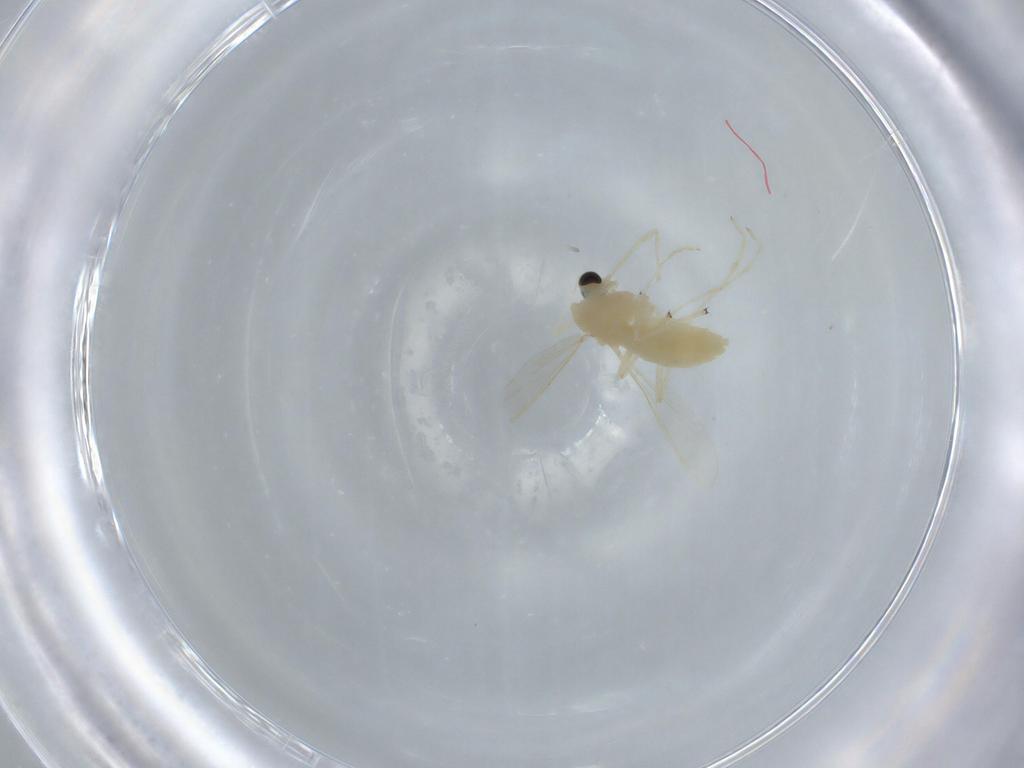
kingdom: Animalia
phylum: Arthropoda
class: Insecta
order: Diptera
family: Chironomidae
